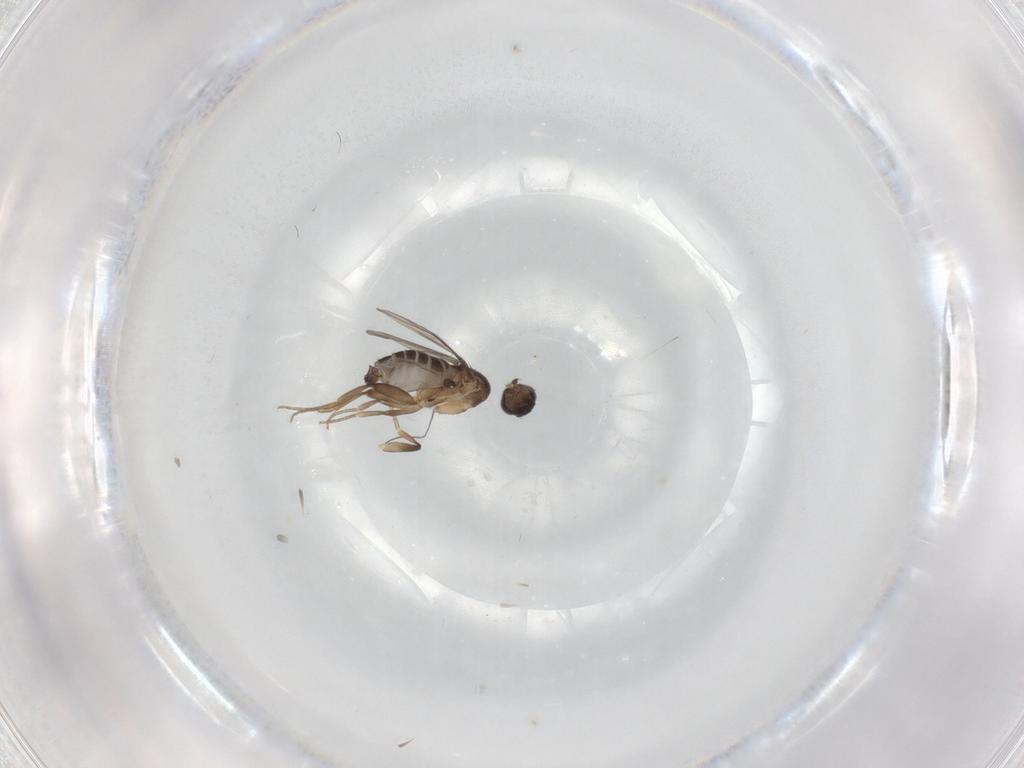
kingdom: Animalia
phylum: Arthropoda
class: Insecta
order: Diptera
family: Phoridae
